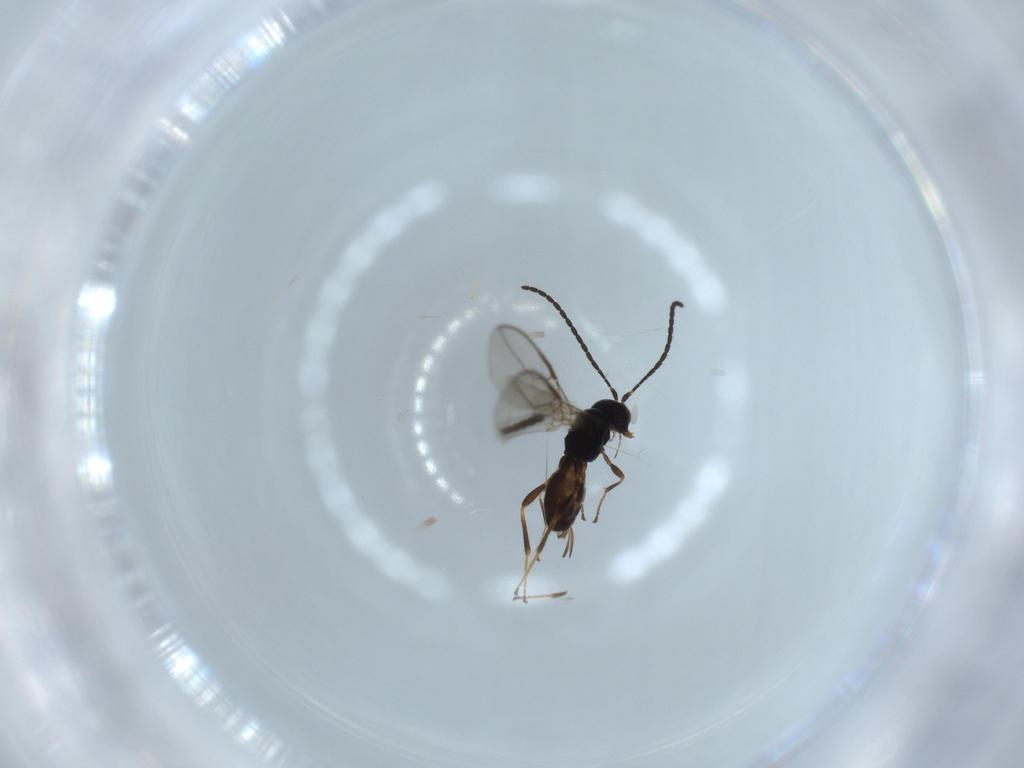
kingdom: Animalia
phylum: Arthropoda
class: Insecta
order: Hymenoptera
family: Braconidae
